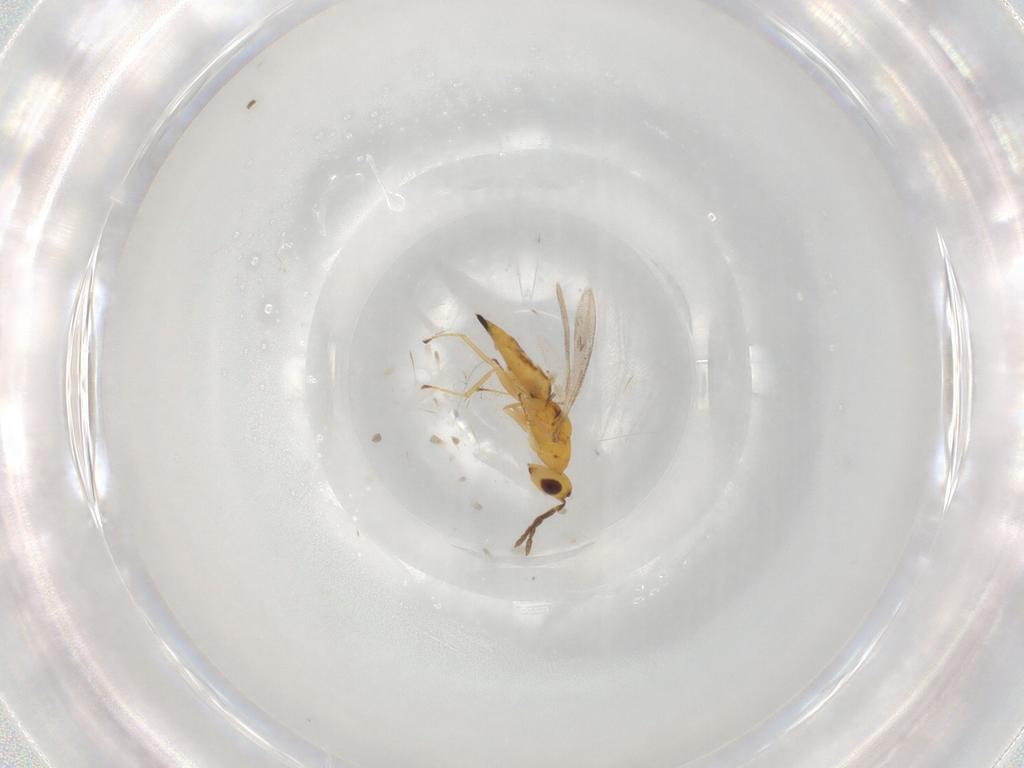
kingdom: Animalia
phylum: Arthropoda
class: Insecta
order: Hymenoptera
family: Eulophidae
